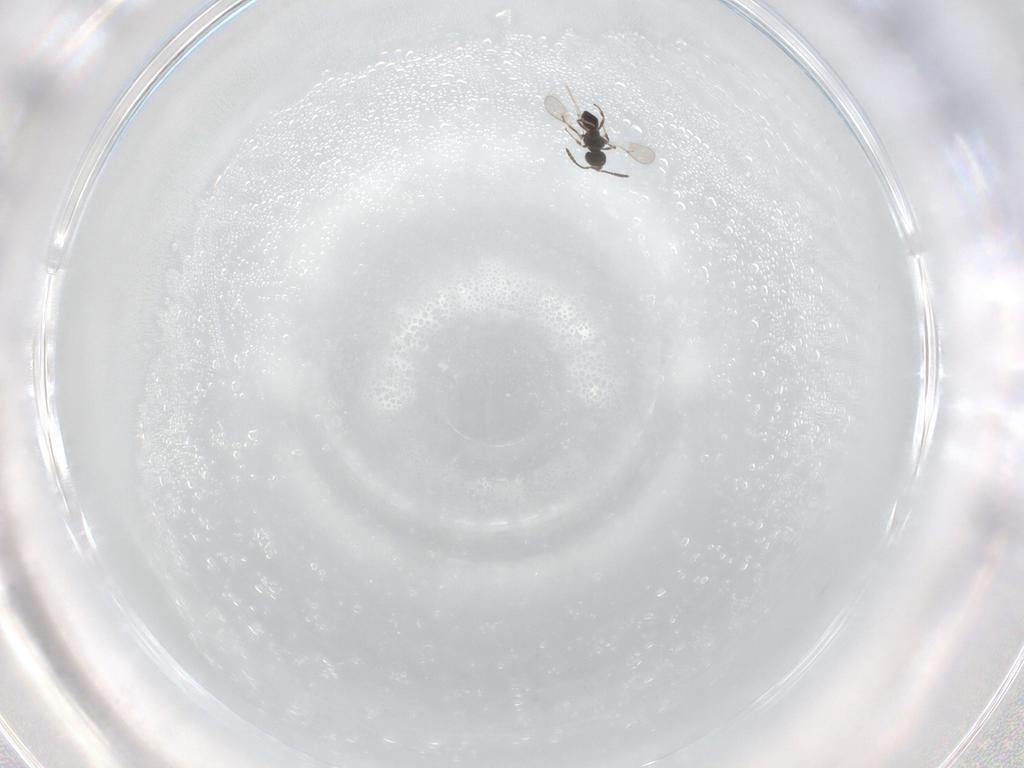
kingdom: Animalia
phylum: Arthropoda
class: Insecta
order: Hymenoptera
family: Scelionidae
